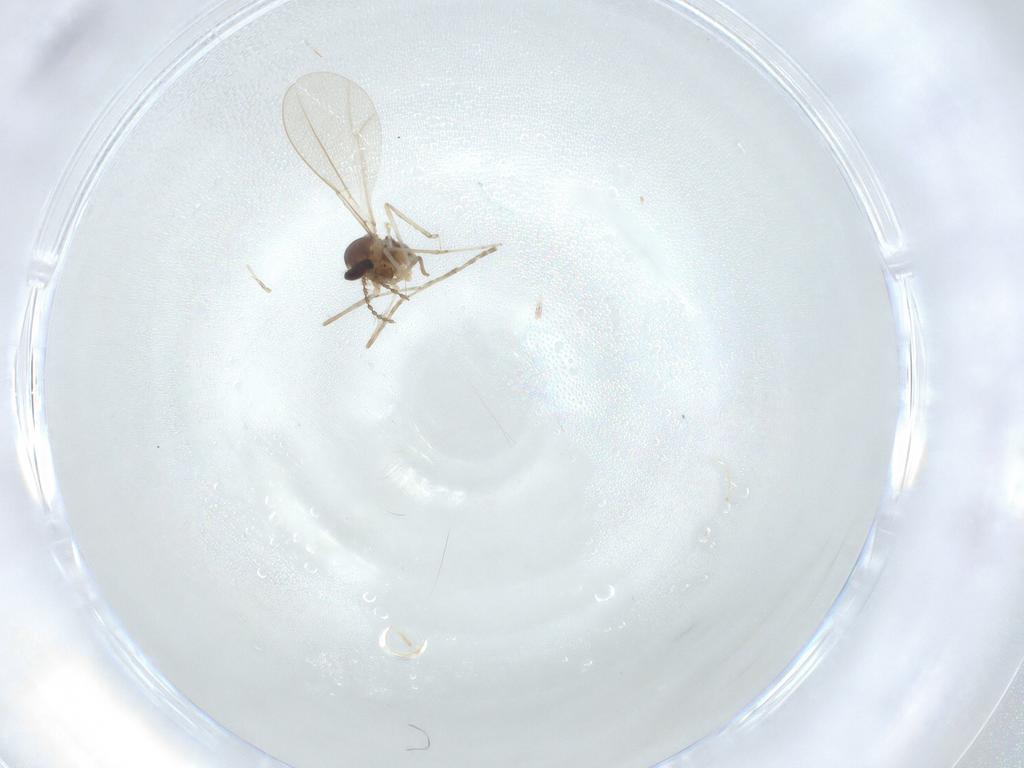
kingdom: Animalia
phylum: Arthropoda
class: Insecta
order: Diptera
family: Cecidomyiidae
